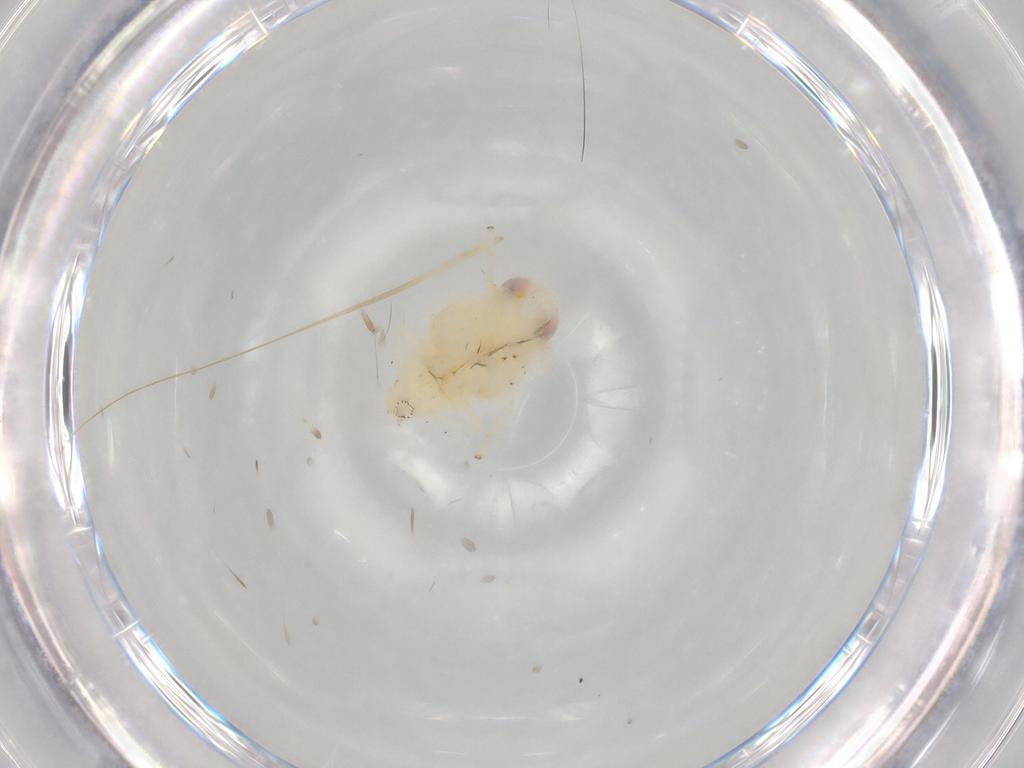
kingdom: Animalia
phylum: Arthropoda
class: Insecta
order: Hemiptera
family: Nogodinidae
